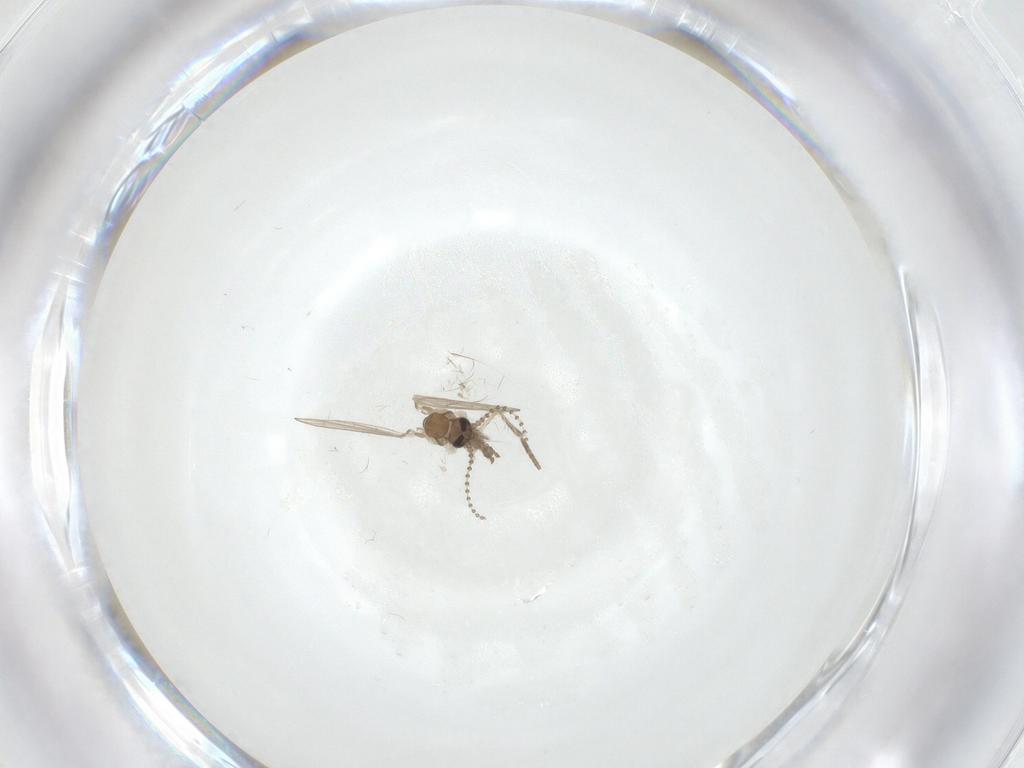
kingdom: Animalia
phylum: Arthropoda
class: Insecta
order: Diptera
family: Psychodidae
